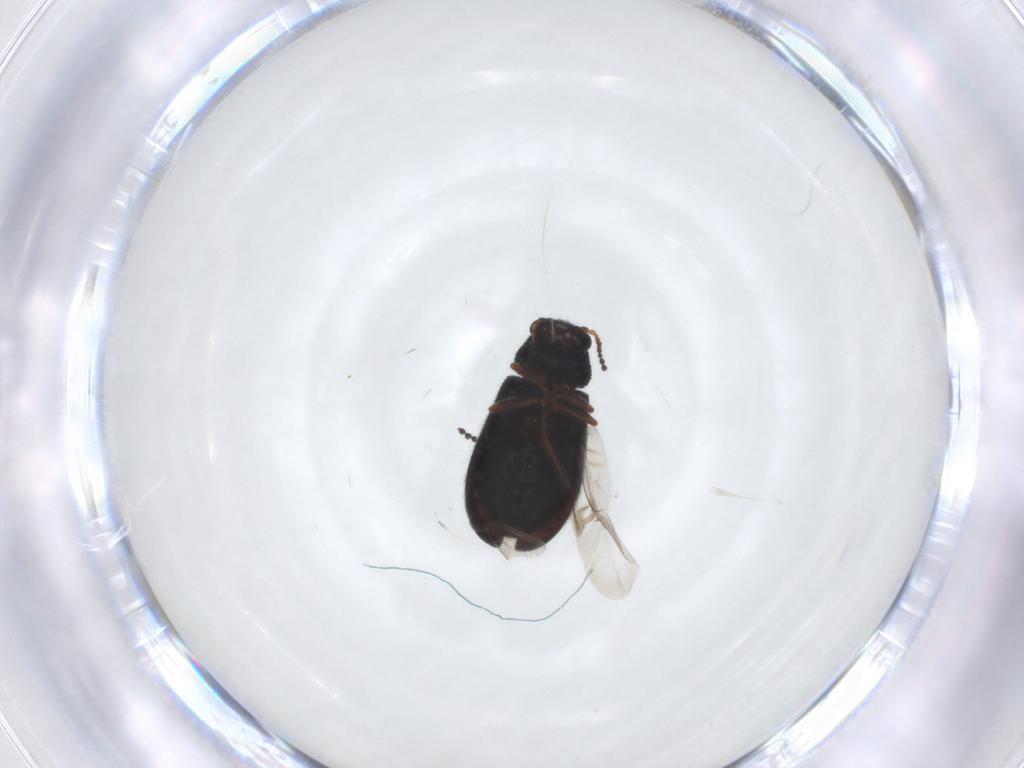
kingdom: Animalia
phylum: Arthropoda
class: Insecta
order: Coleoptera
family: Melyridae
